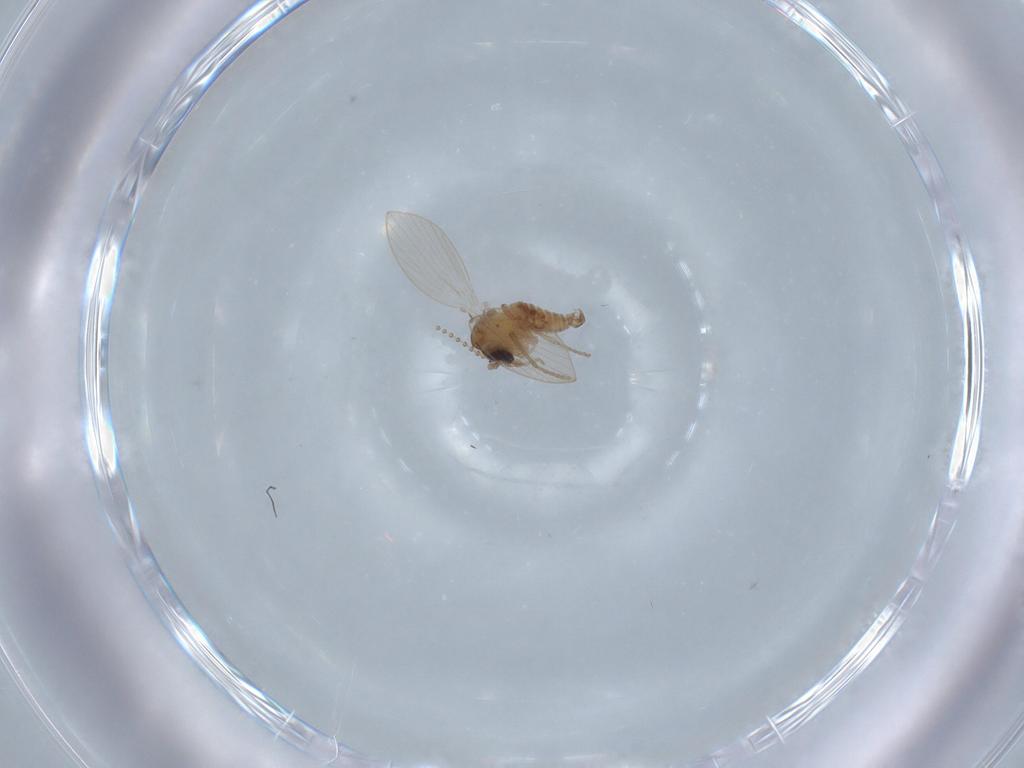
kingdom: Animalia
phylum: Arthropoda
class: Insecta
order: Diptera
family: Psychodidae
